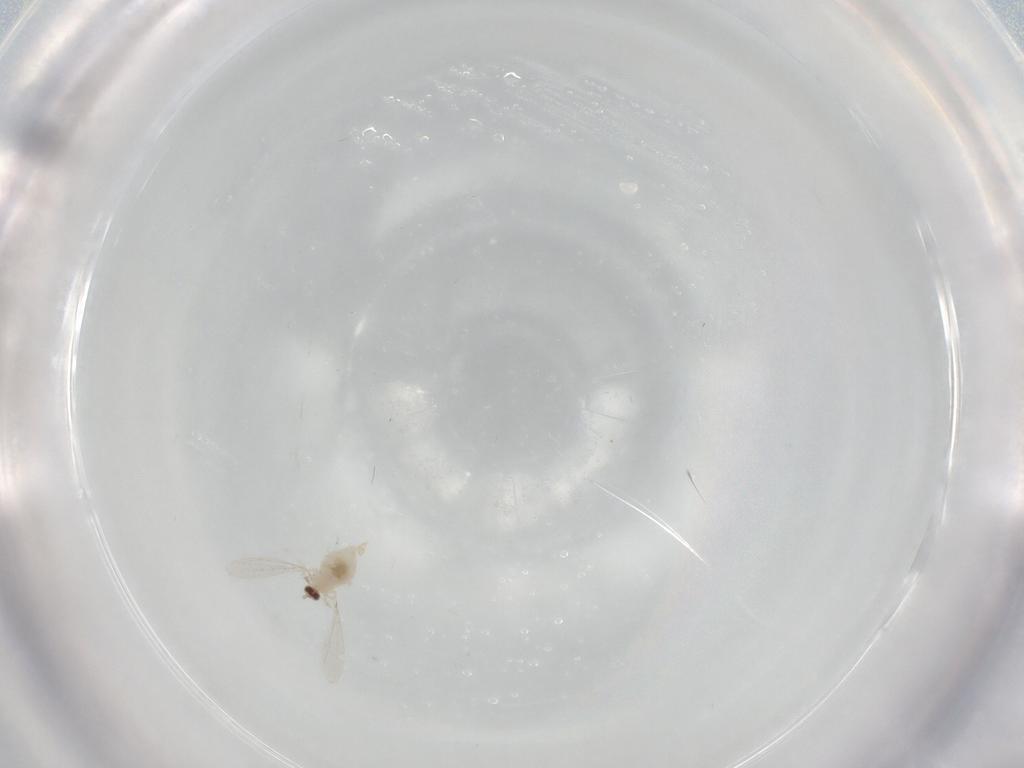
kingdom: Animalia
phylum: Arthropoda
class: Insecta
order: Diptera
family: Cecidomyiidae
